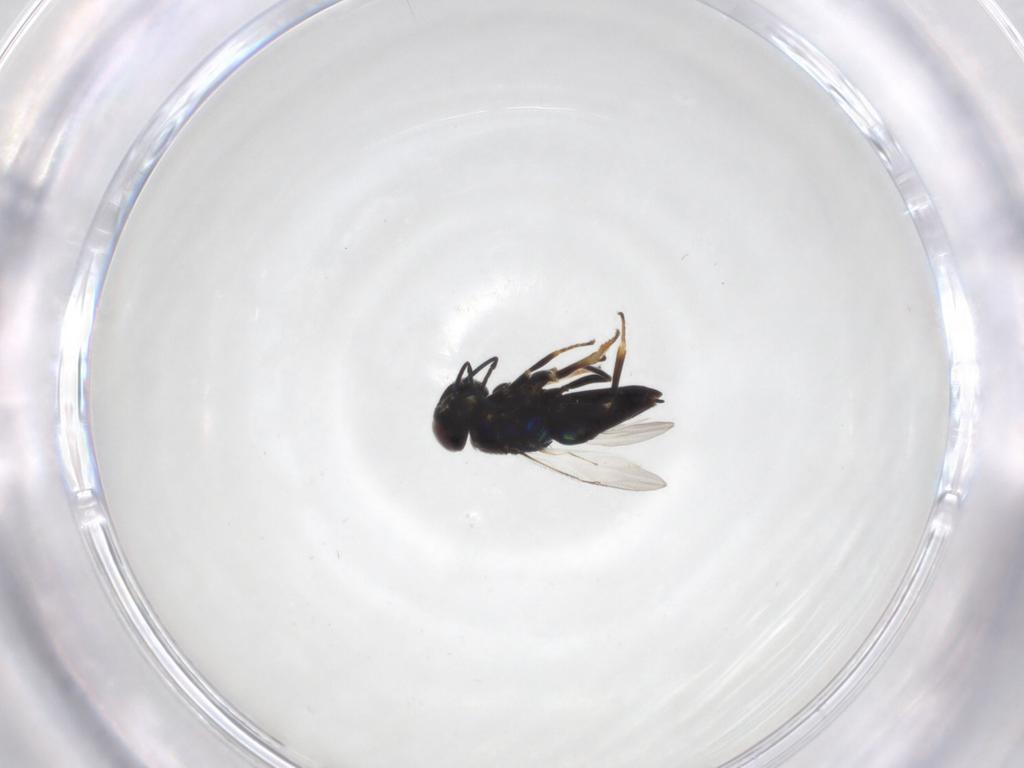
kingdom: Animalia
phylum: Arthropoda
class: Insecta
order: Hymenoptera
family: Encyrtidae
